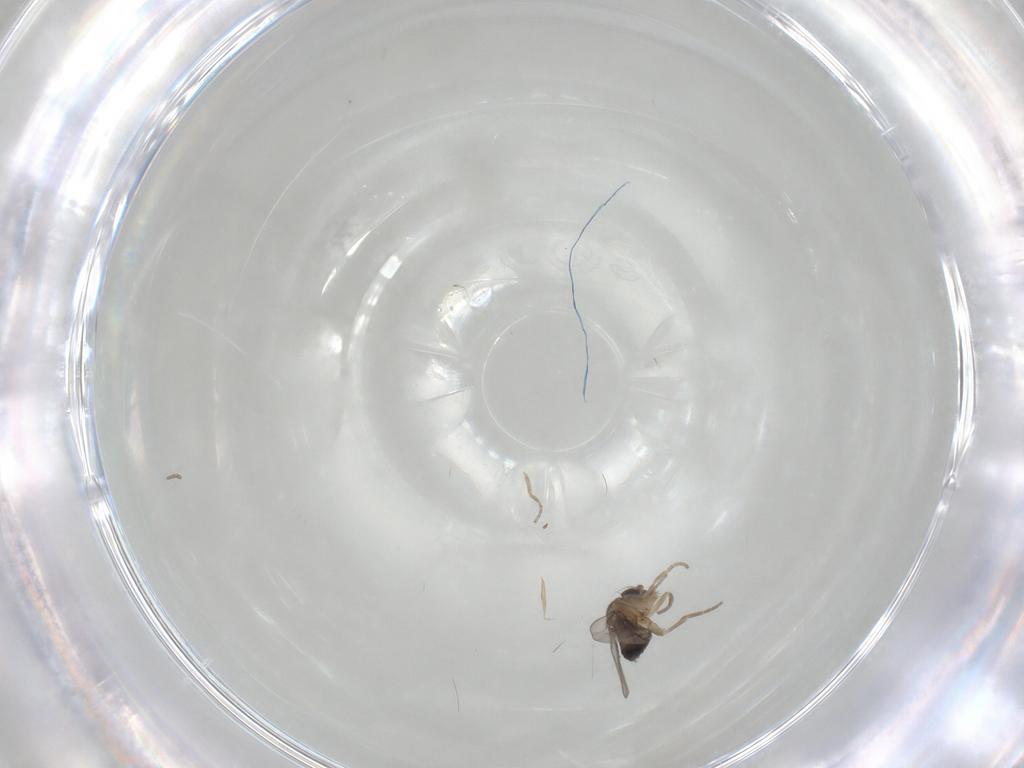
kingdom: Animalia
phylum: Arthropoda
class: Insecta
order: Diptera
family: Phoridae
